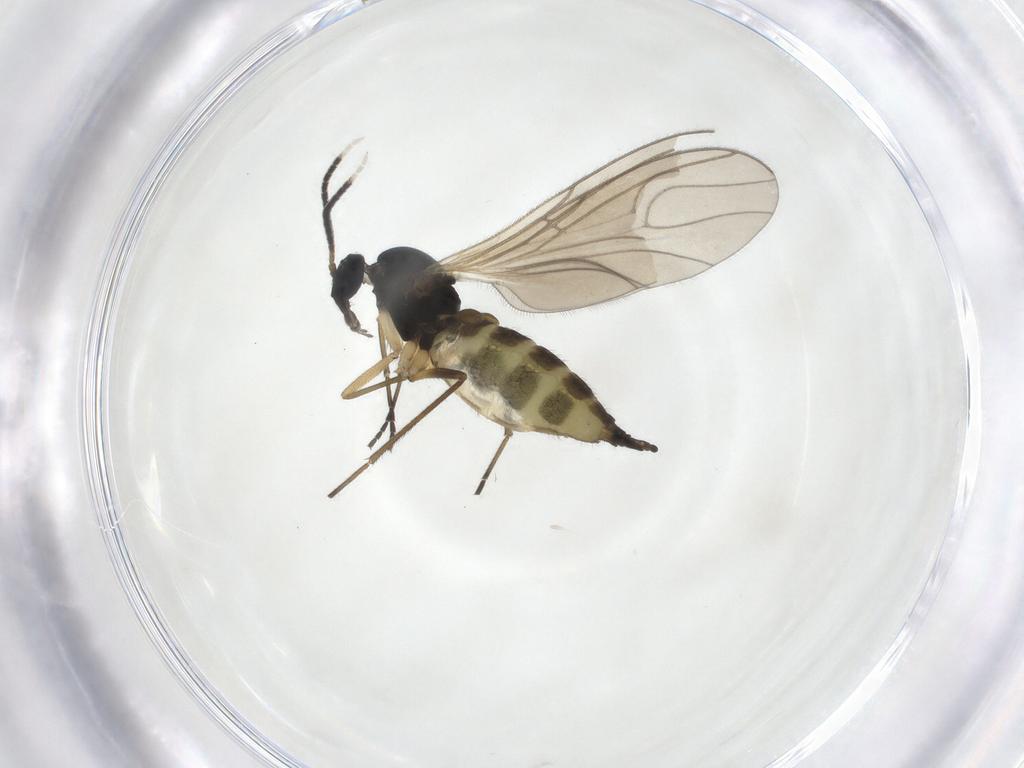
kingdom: Animalia
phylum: Arthropoda
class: Insecta
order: Diptera
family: Sciaridae
